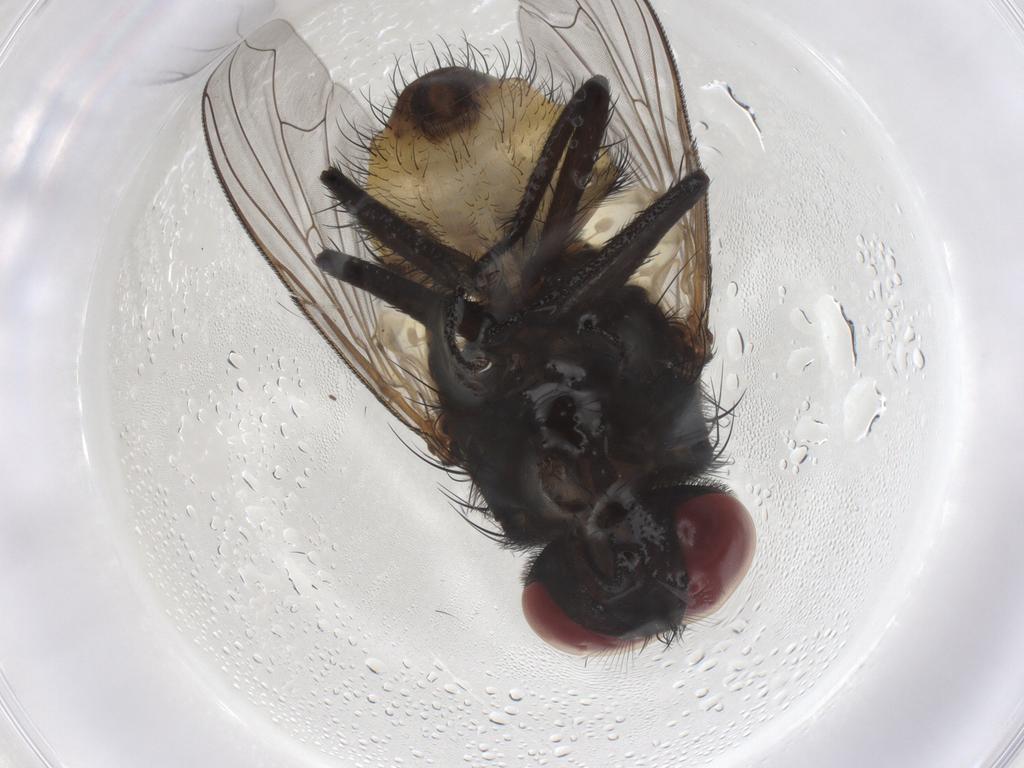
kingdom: Animalia
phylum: Arthropoda
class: Insecta
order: Diptera
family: Muscidae
